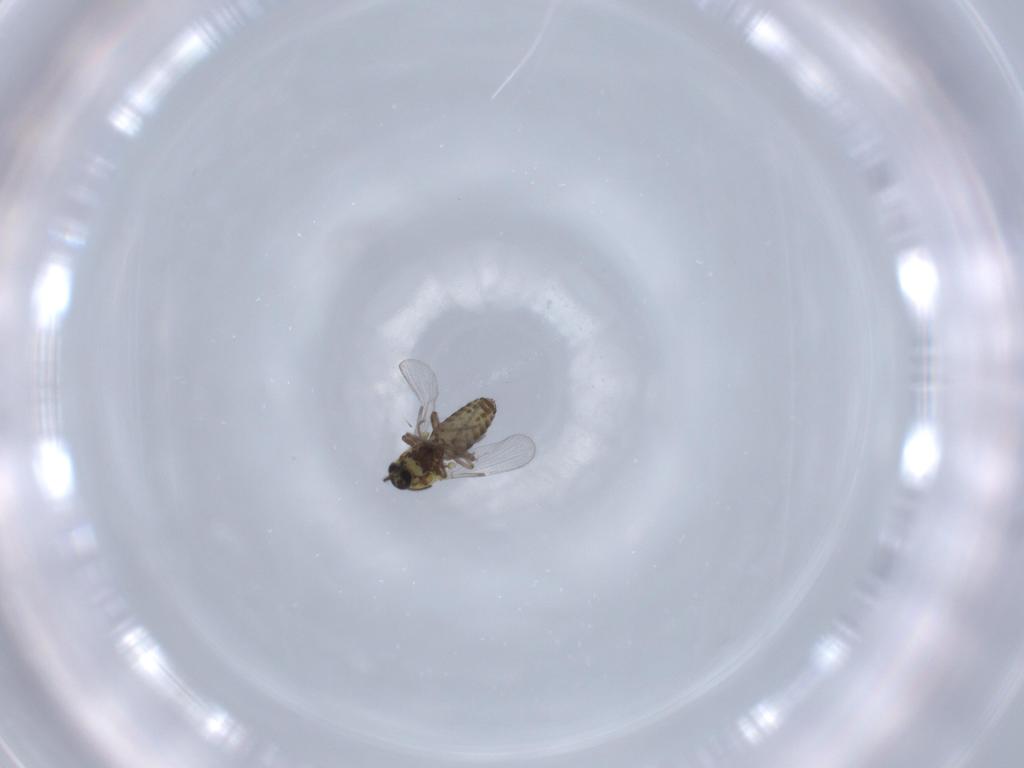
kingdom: Animalia
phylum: Arthropoda
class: Insecta
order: Diptera
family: Ceratopogonidae
